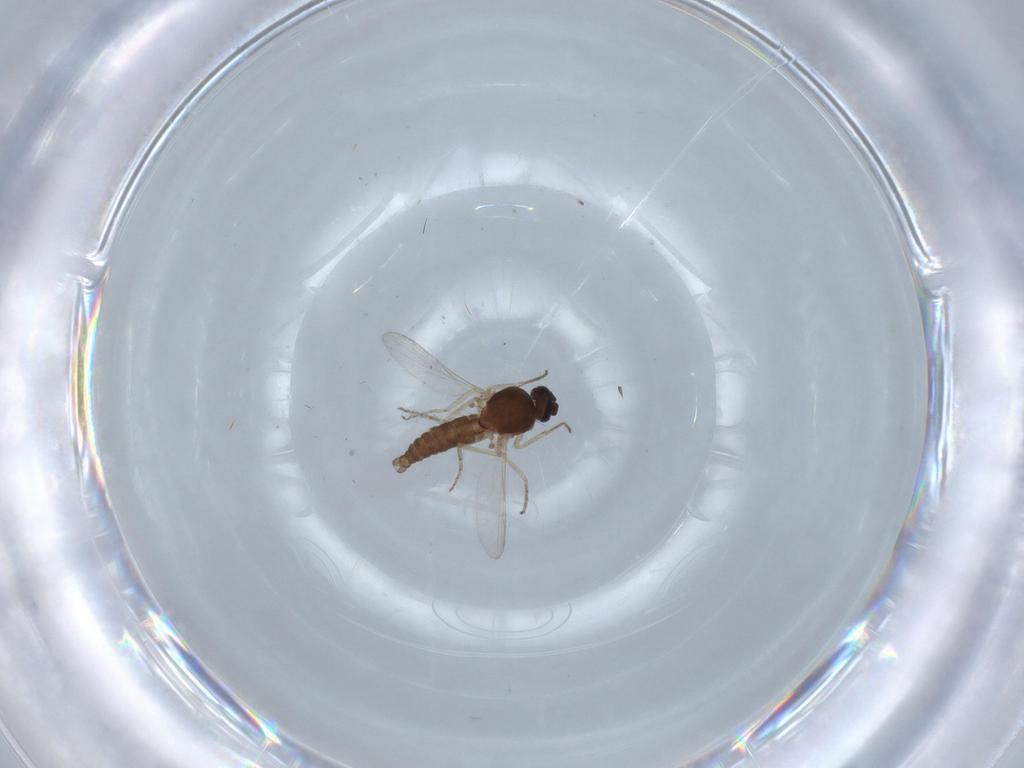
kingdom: Animalia
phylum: Arthropoda
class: Insecta
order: Diptera
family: Ceratopogonidae
